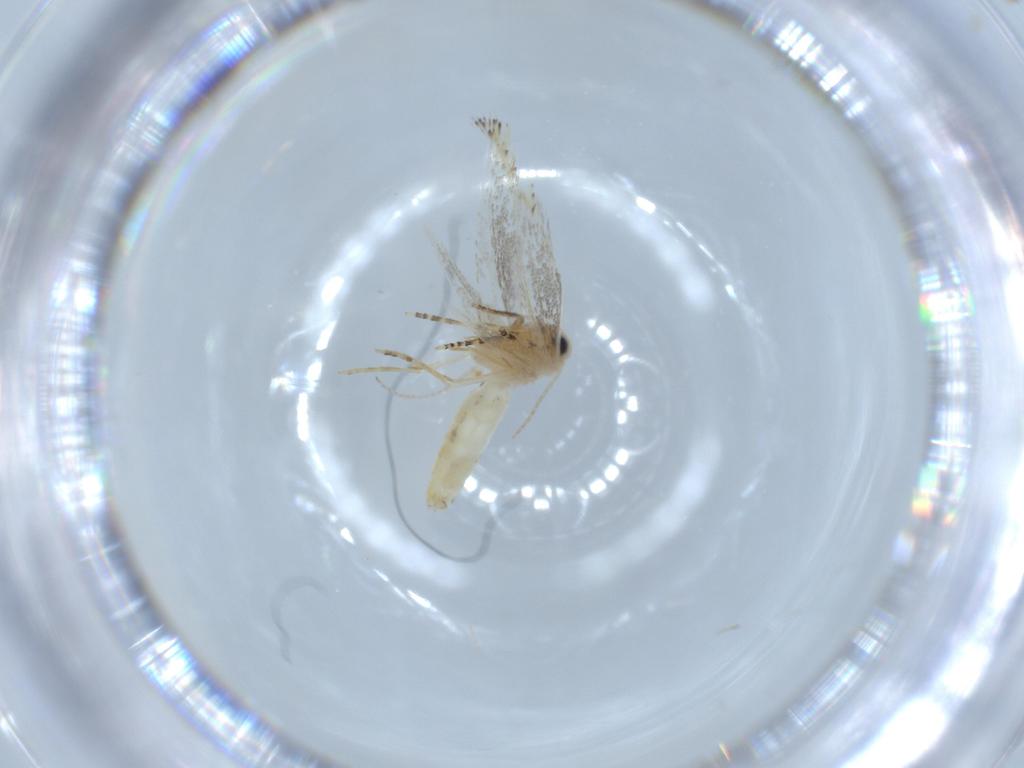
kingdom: Animalia
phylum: Arthropoda
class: Insecta
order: Lepidoptera
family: Bucculatricidae
